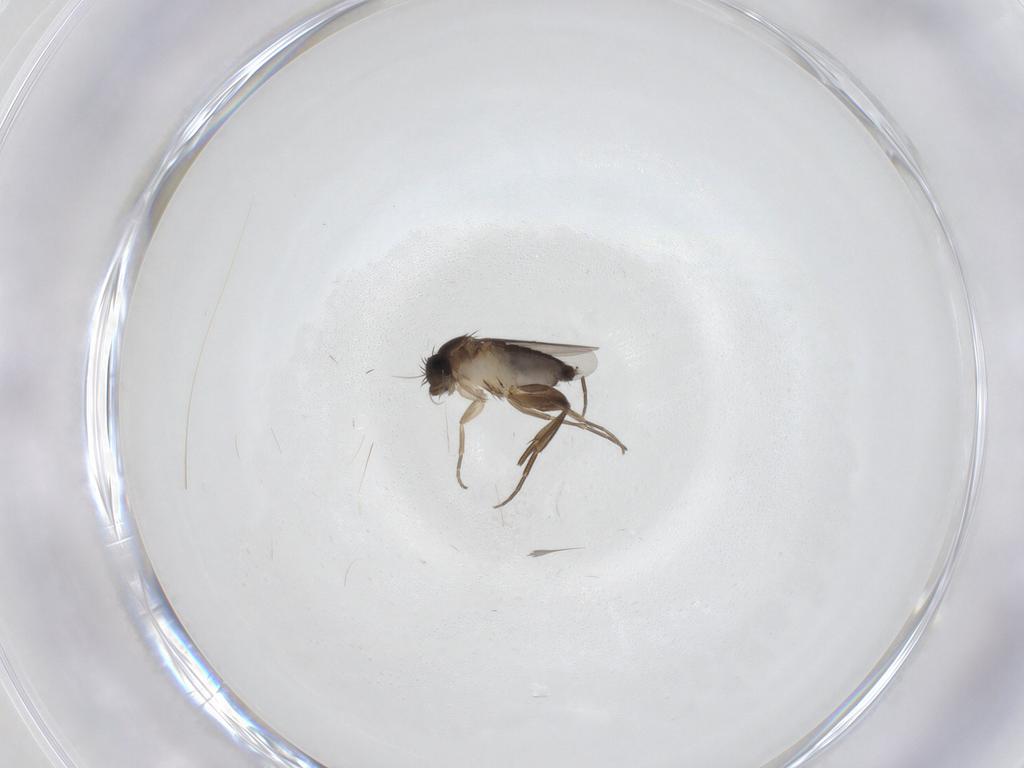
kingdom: Animalia
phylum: Arthropoda
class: Insecta
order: Diptera
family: Phoridae
